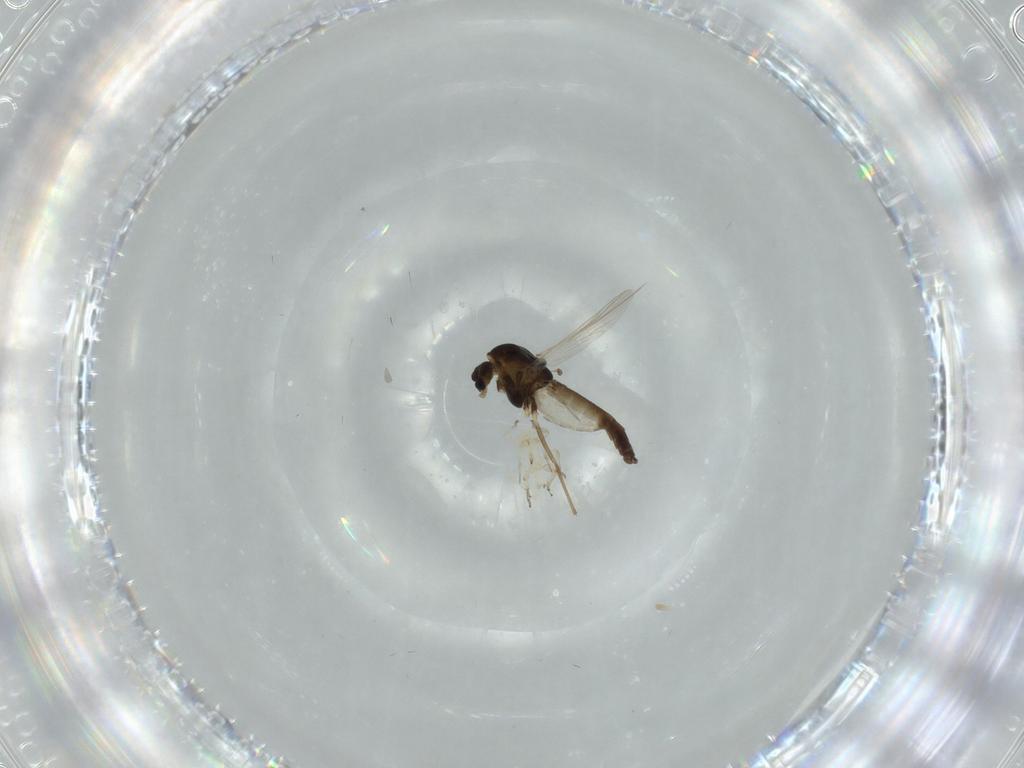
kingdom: Animalia
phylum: Arthropoda
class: Insecta
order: Diptera
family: Chironomidae
